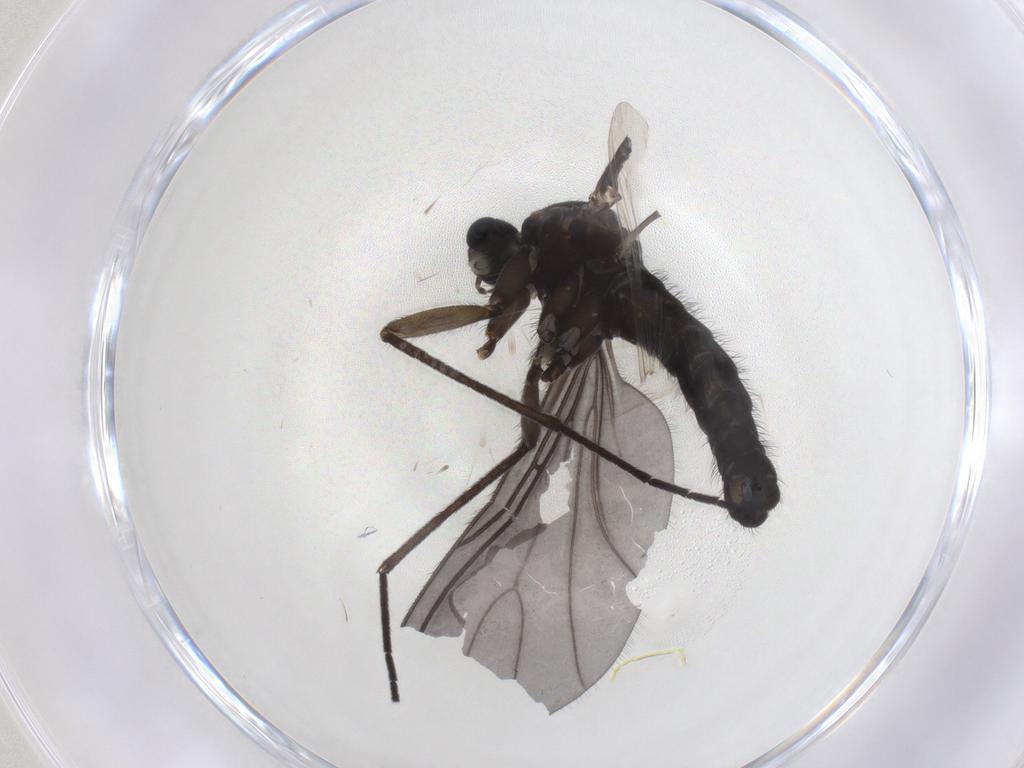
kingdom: Animalia
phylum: Arthropoda
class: Insecta
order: Diptera
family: Sciaridae
